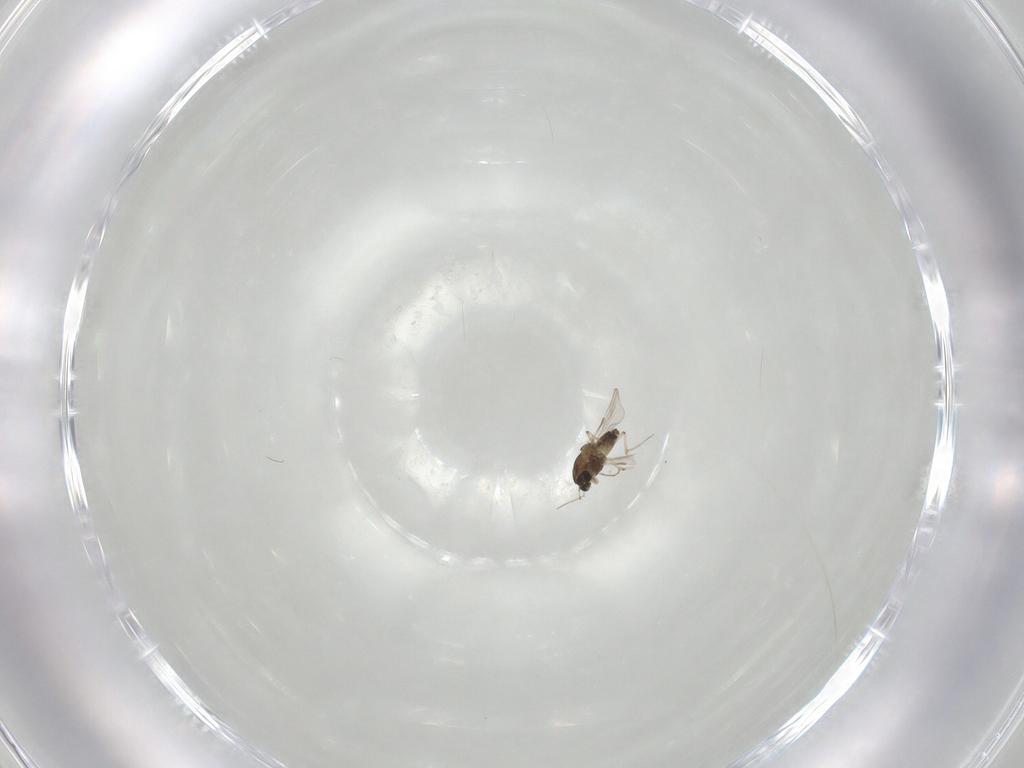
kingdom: Animalia
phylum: Arthropoda
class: Insecta
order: Diptera
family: Chironomidae
